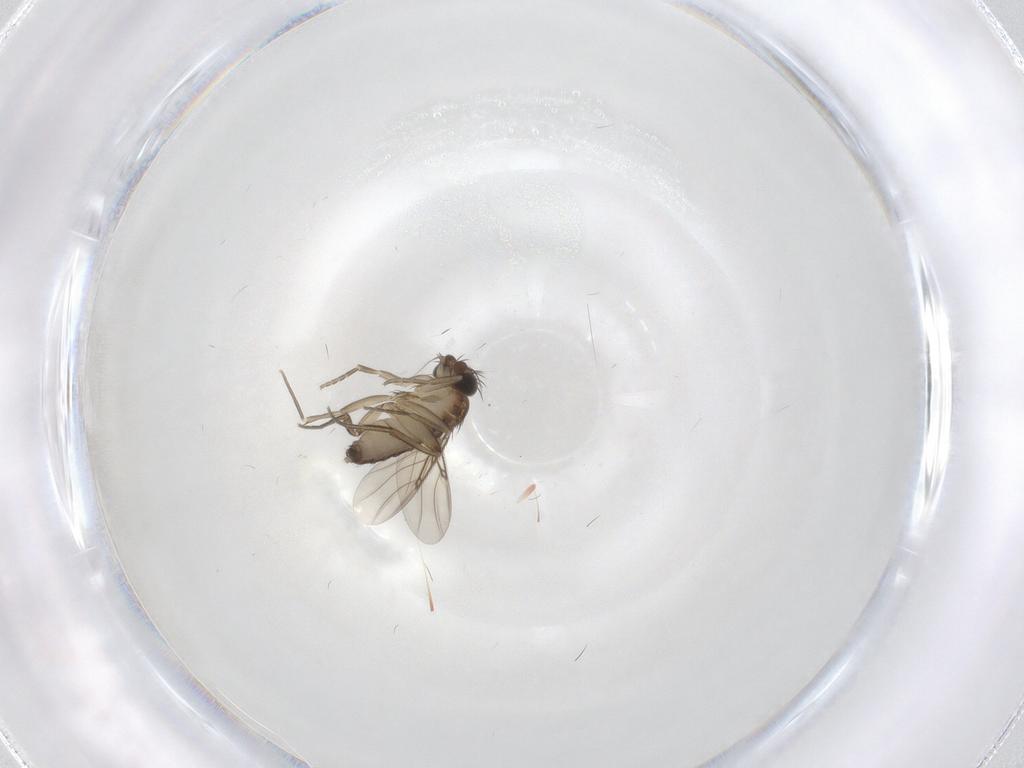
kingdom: Animalia
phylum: Arthropoda
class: Insecta
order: Diptera
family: Phoridae
